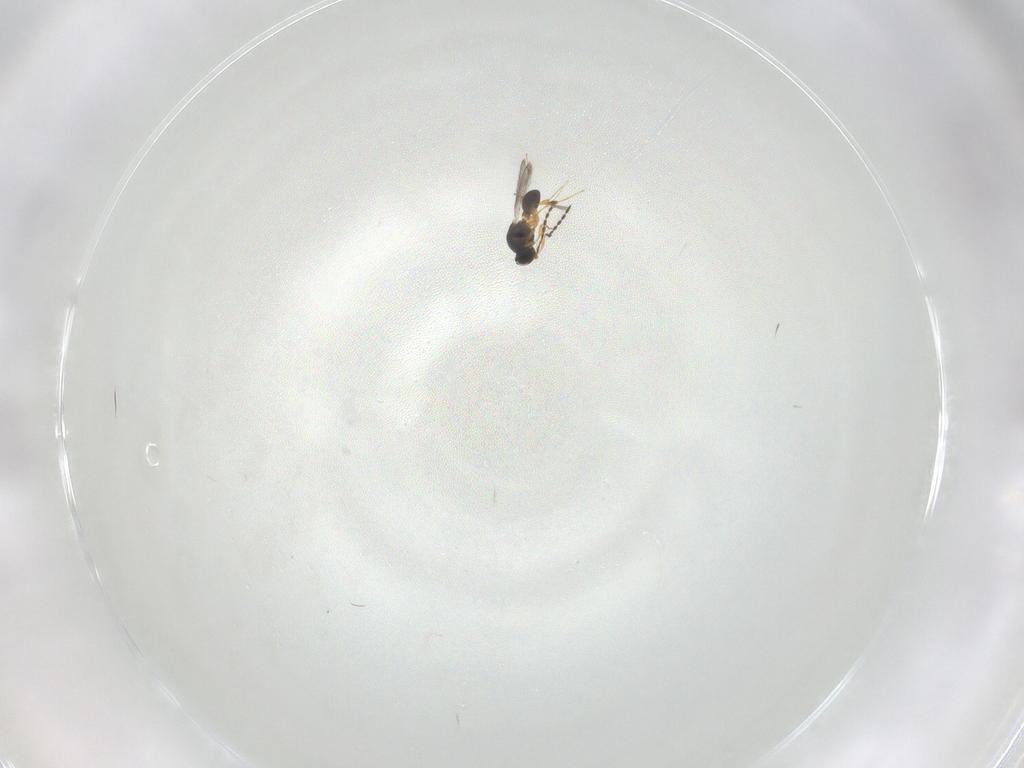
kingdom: Animalia
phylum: Arthropoda
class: Insecta
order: Hymenoptera
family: Platygastridae
